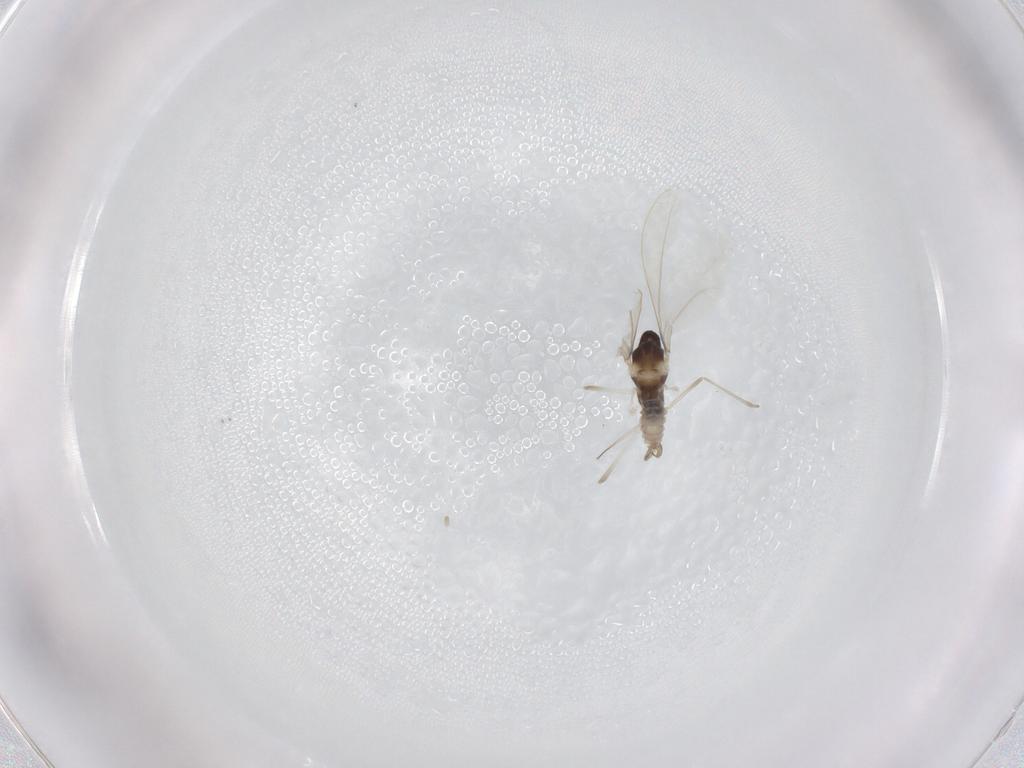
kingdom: Animalia
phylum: Arthropoda
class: Insecta
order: Diptera
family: Cecidomyiidae
